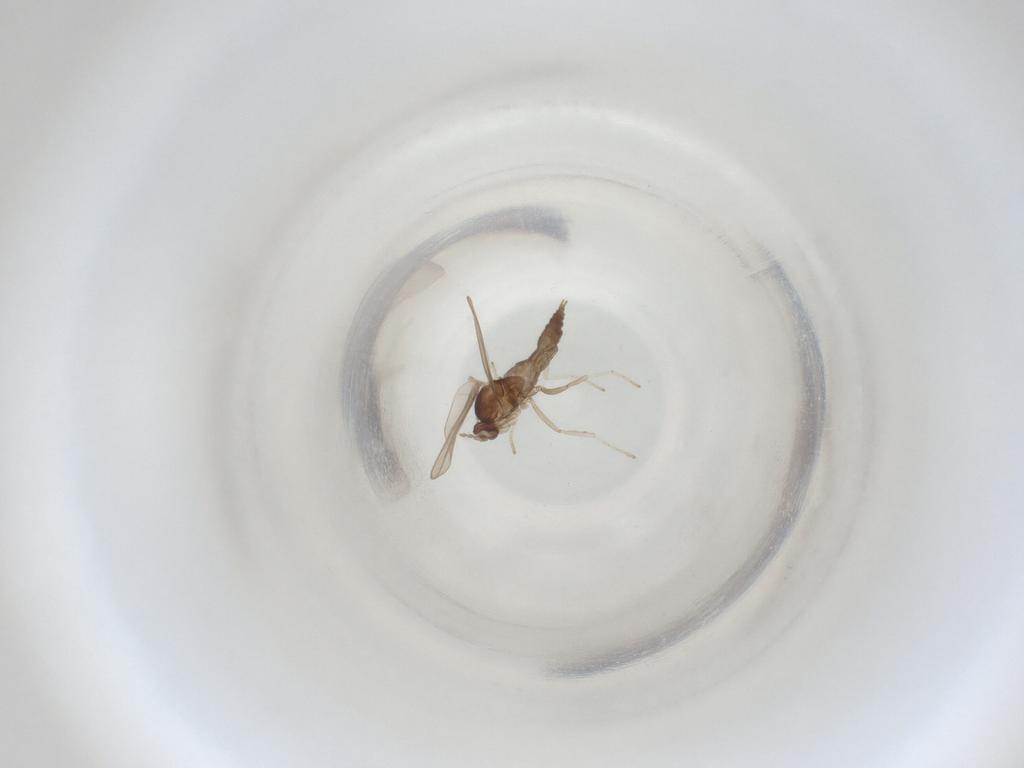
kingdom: Animalia
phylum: Arthropoda
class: Insecta
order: Diptera
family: Cecidomyiidae
